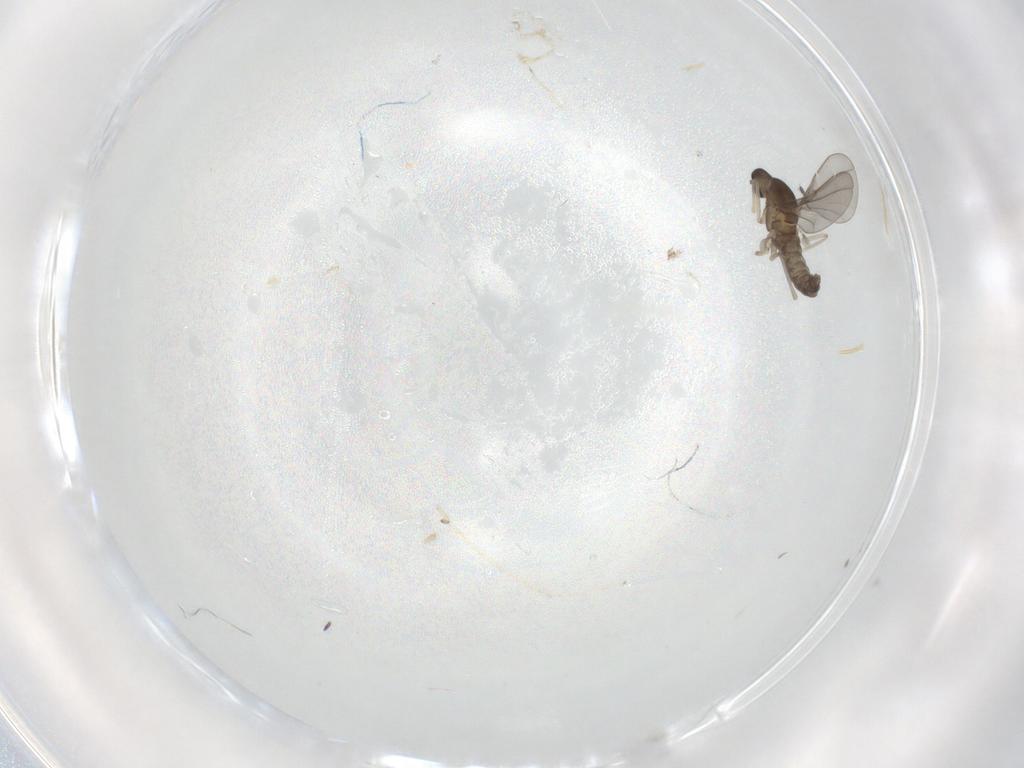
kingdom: Animalia
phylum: Arthropoda
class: Insecta
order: Diptera
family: Cecidomyiidae
